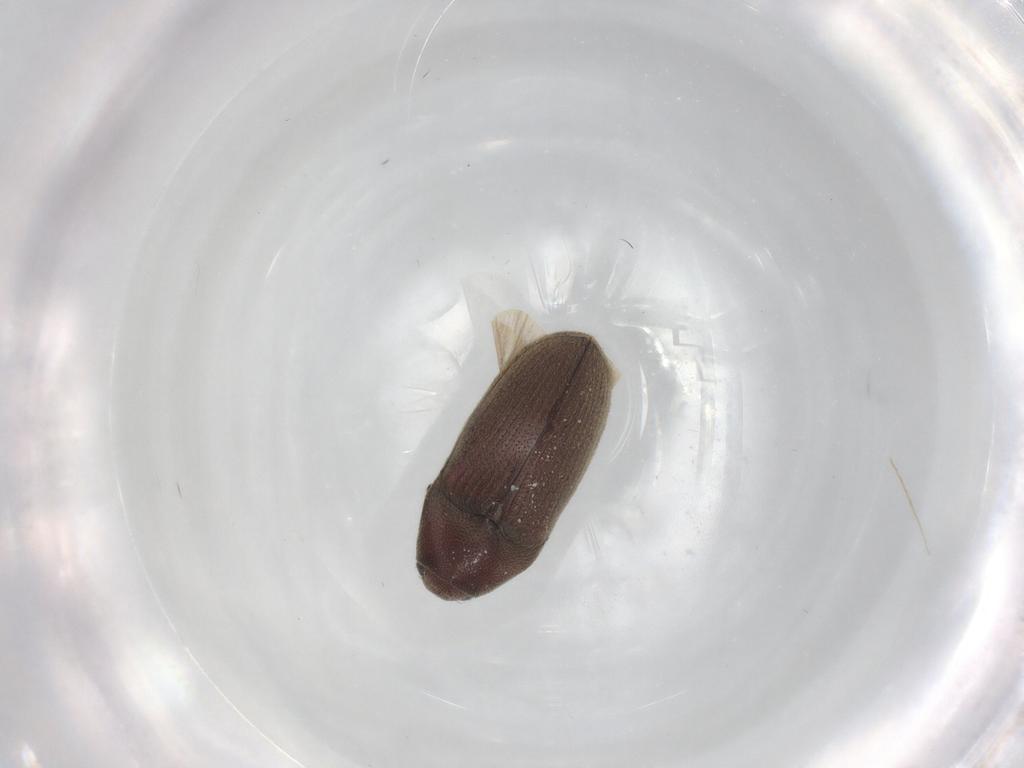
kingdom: Animalia
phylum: Arthropoda
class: Insecta
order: Coleoptera
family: Throscidae
